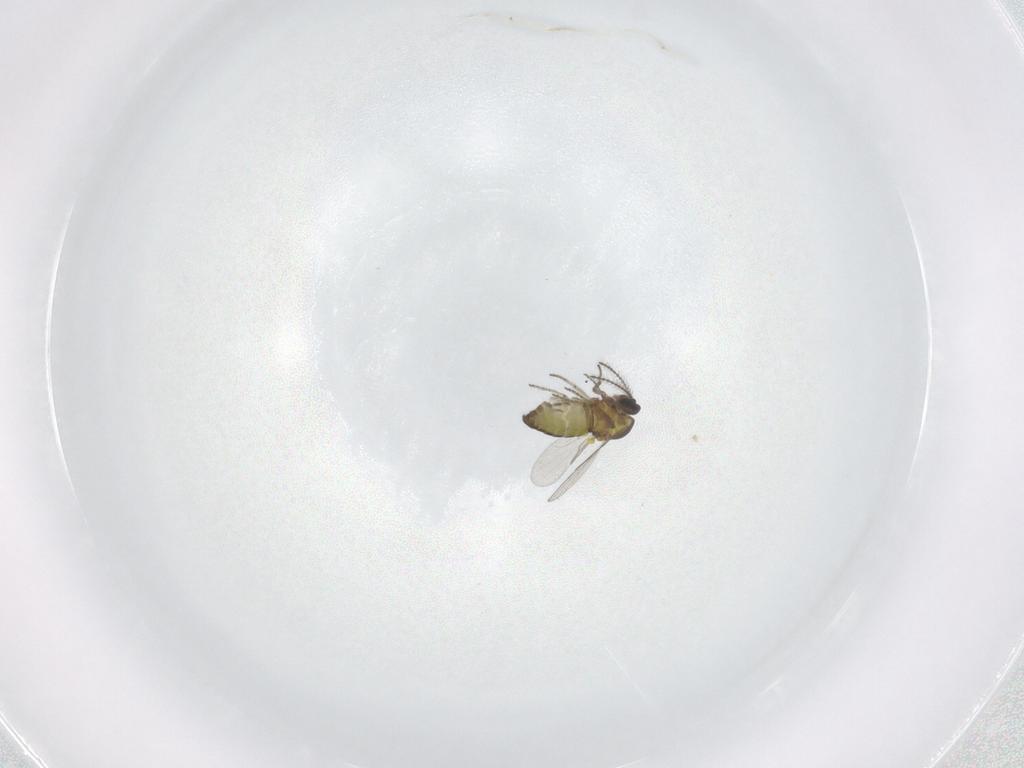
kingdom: Animalia
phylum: Arthropoda
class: Insecta
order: Diptera
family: Ceratopogonidae
